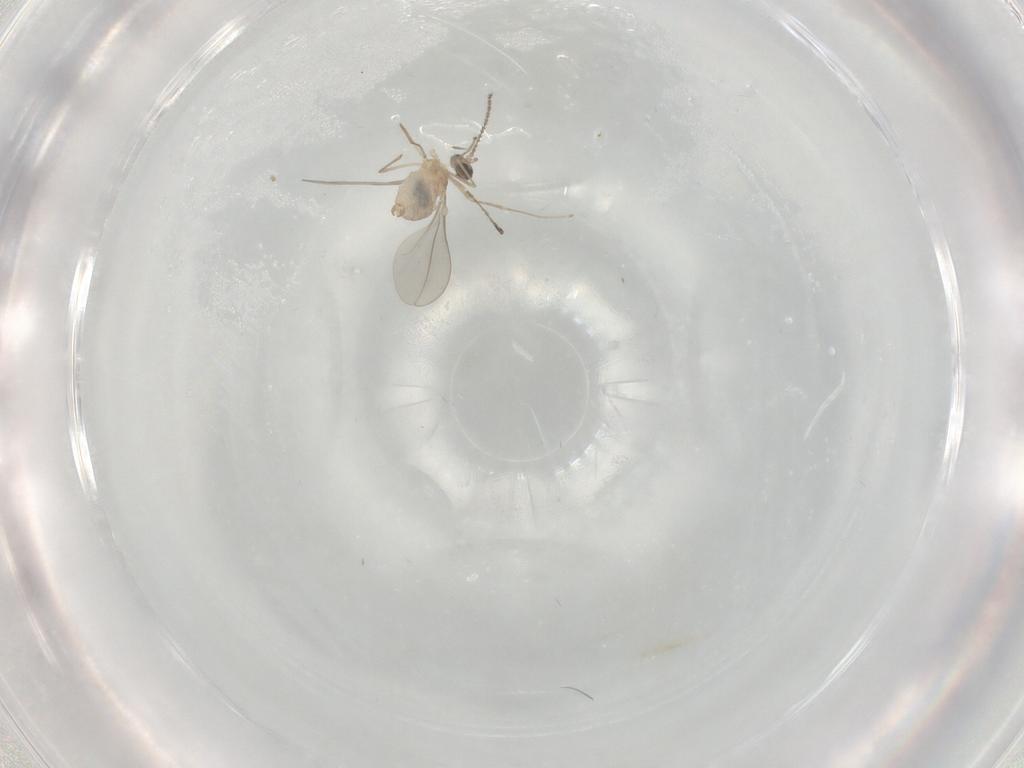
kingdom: Animalia
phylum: Arthropoda
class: Insecta
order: Diptera
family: Cecidomyiidae
